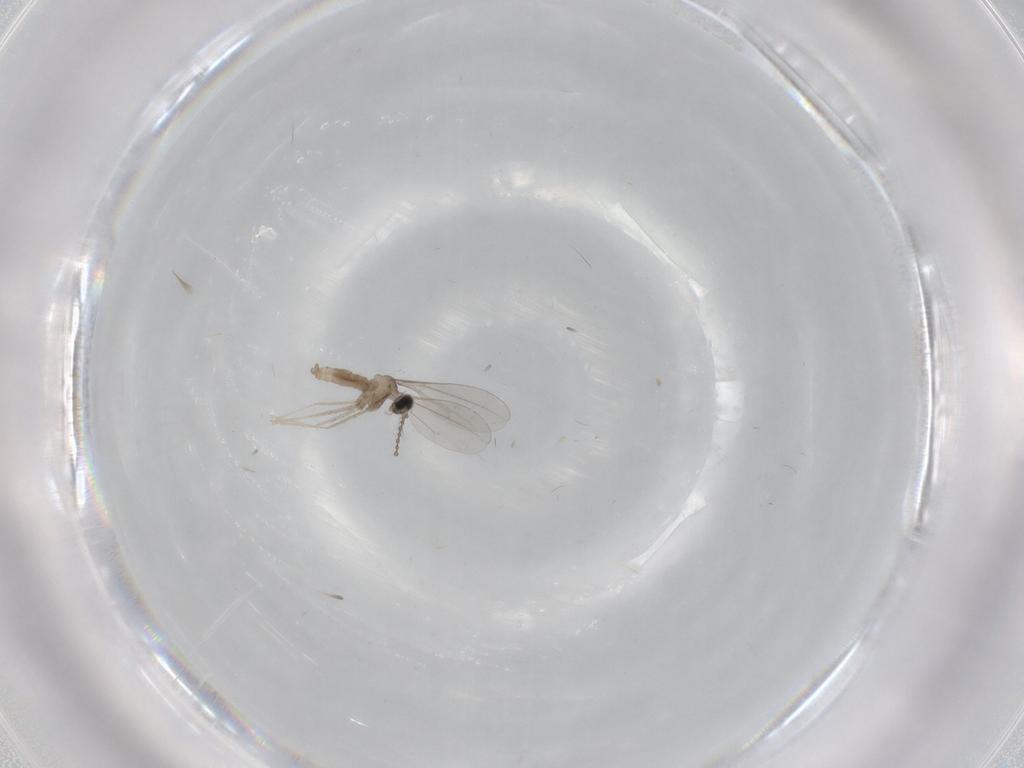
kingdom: Animalia
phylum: Arthropoda
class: Insecta
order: Diptera
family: Cecidomyiidae
